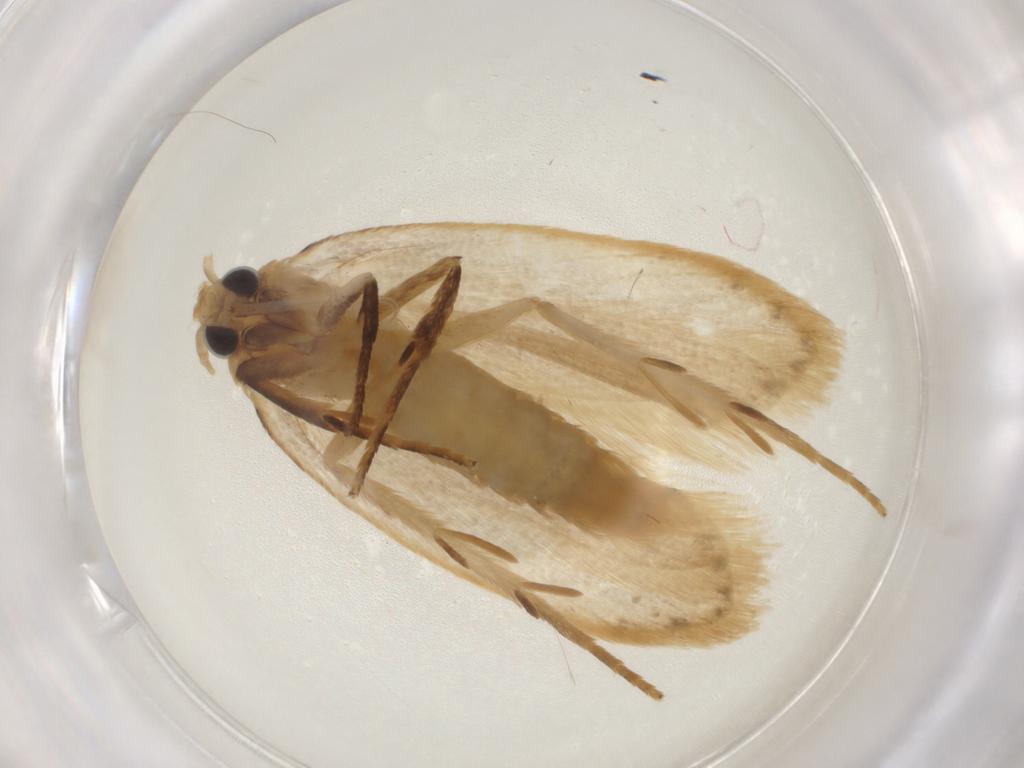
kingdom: Animalia
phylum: Arthropoda
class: Insecta
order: Lepidoptera
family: Depressariidae
